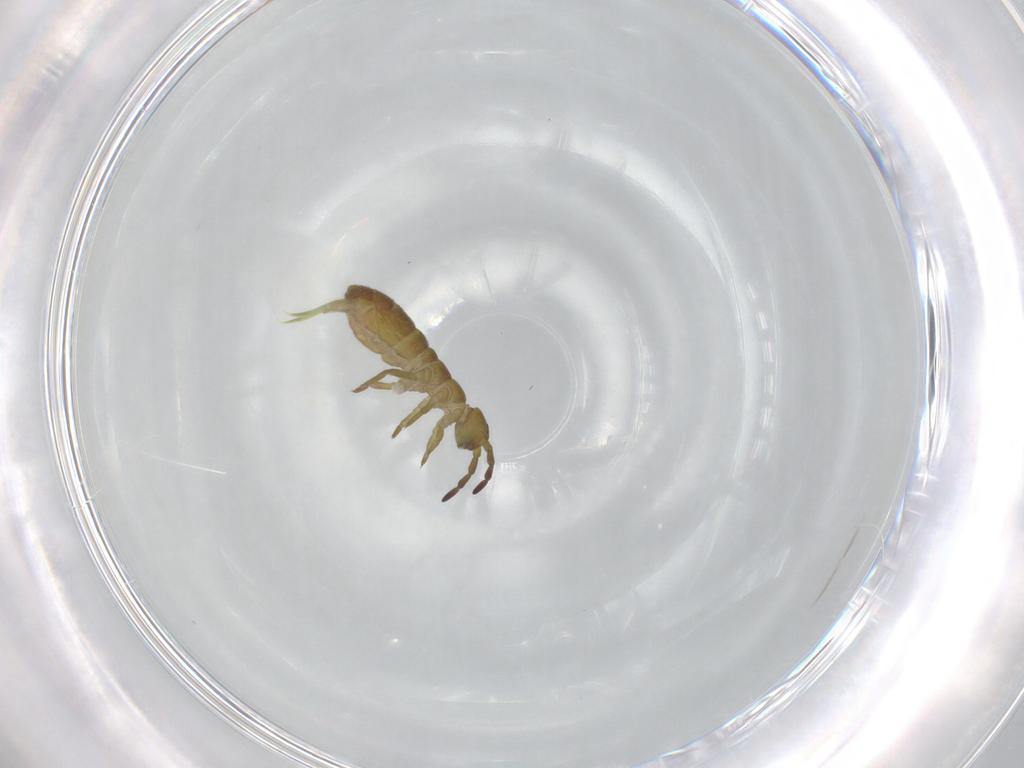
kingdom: Animalia
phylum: Arthropoda
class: Collembola
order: Entomobryomorpha
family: Isotomidae
